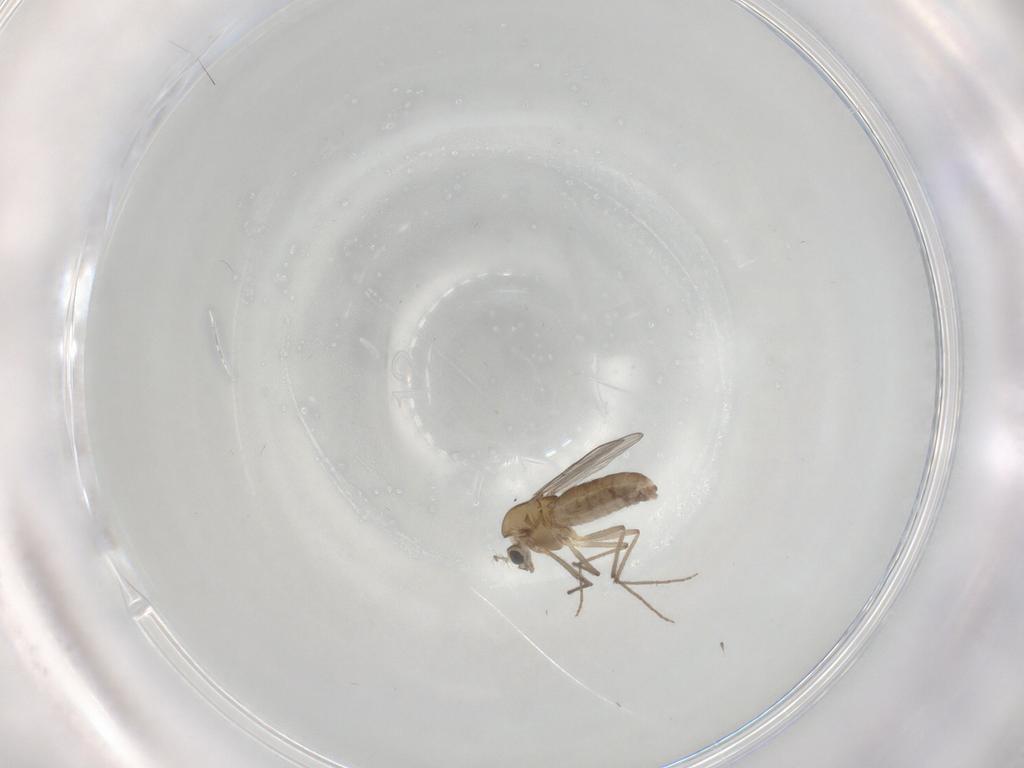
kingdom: Animalia
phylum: Arthropoda
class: Insecta
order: Diptera
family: Chironomidae
